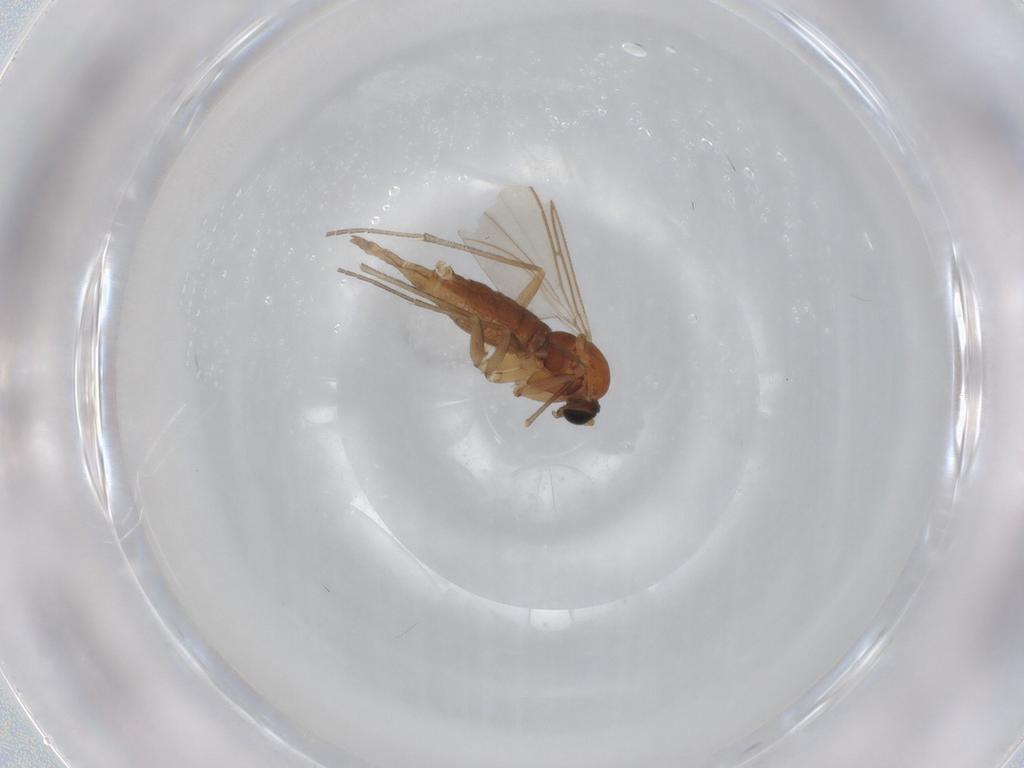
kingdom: Animalia
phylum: Arthropoda
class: Insecta
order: Diptera
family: Sciaridae
